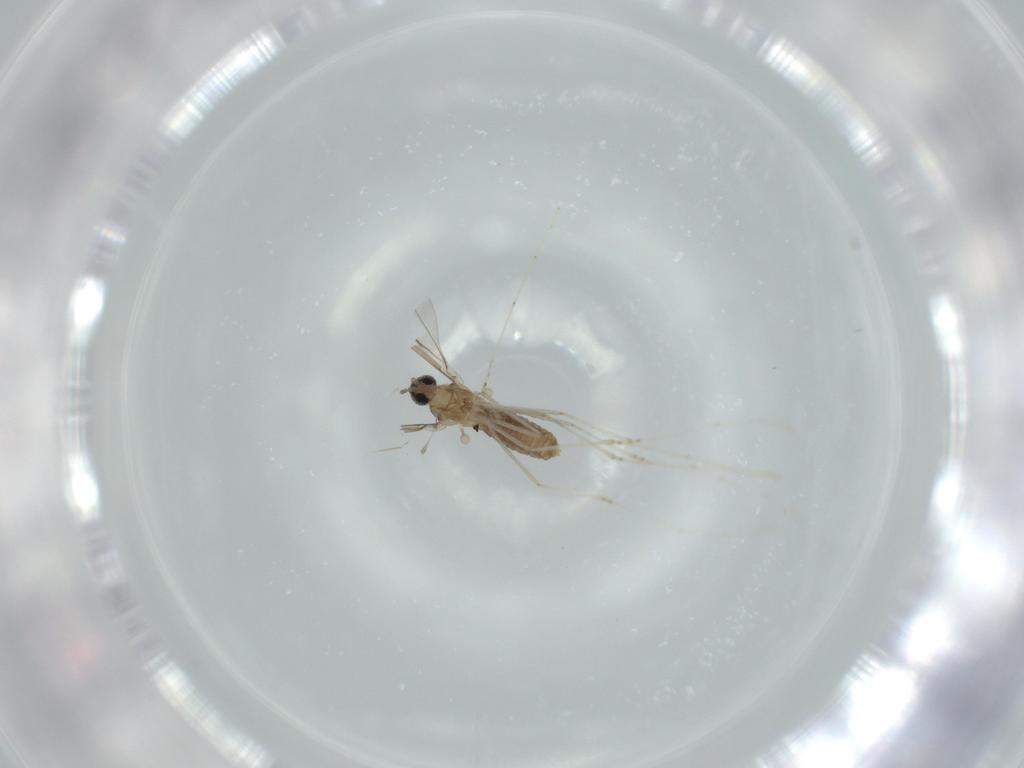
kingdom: Animalia
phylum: Arthropoda
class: Insecta
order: Diptera
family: Cecidomyiidae
